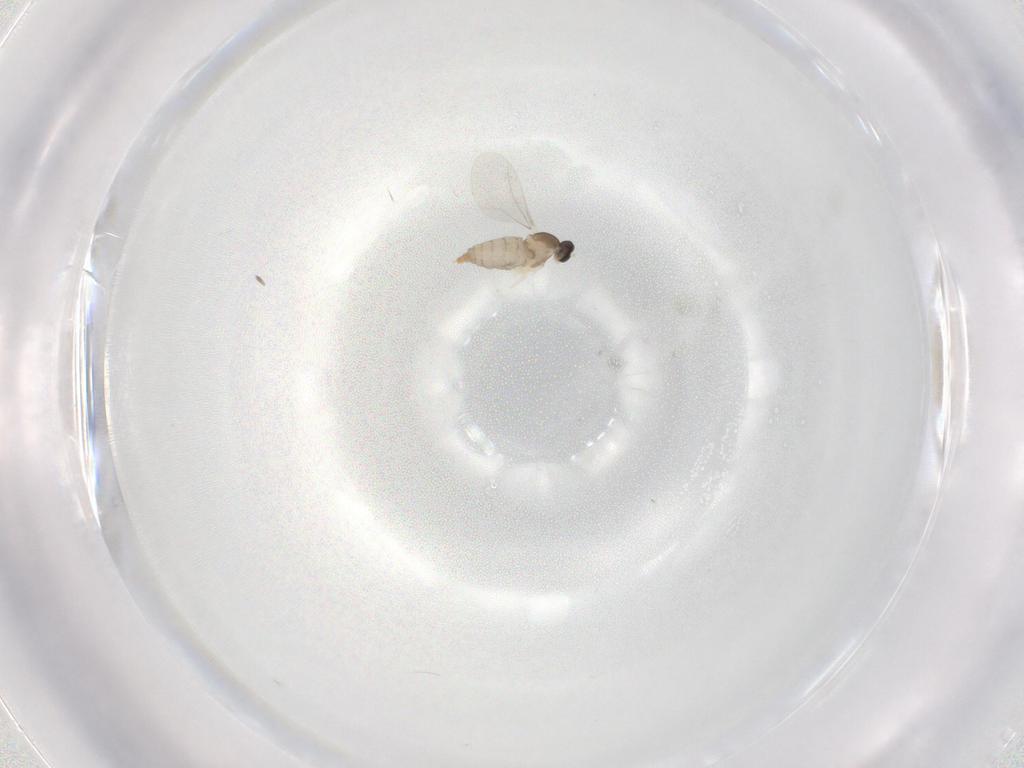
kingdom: Animalia
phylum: Arthropoda
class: Insecta
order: Diptera
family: Cecidomyiidae
